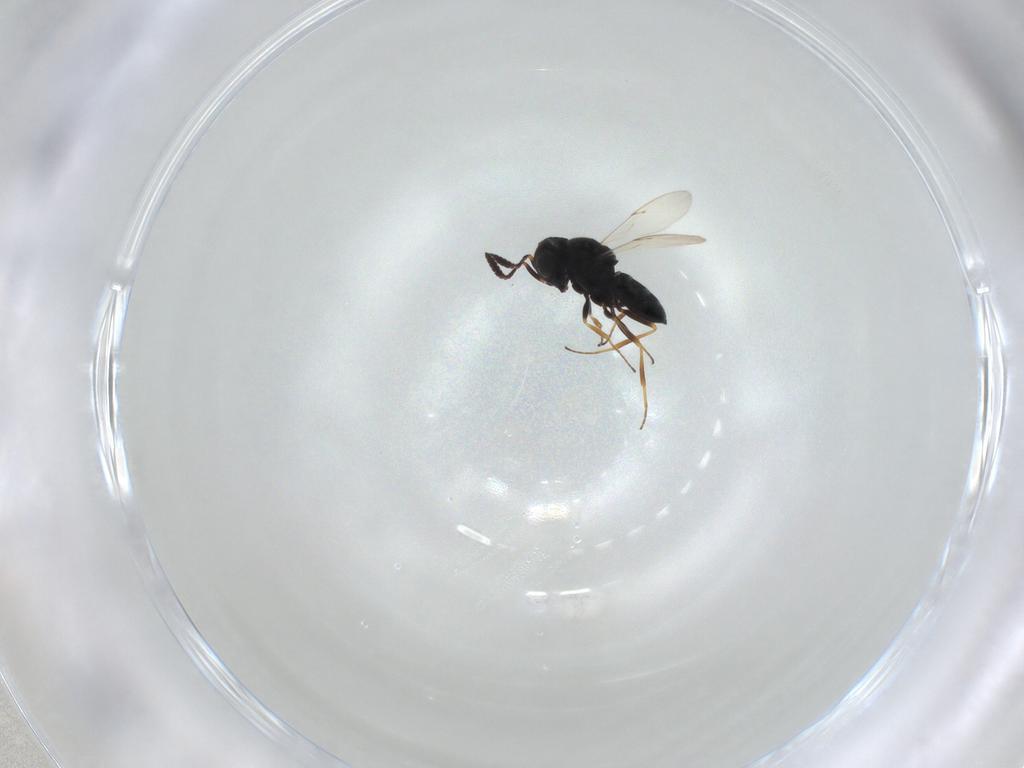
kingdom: Animalia
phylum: Arthropoda
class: Insecta
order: Hymenoptera
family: Scelionidae
